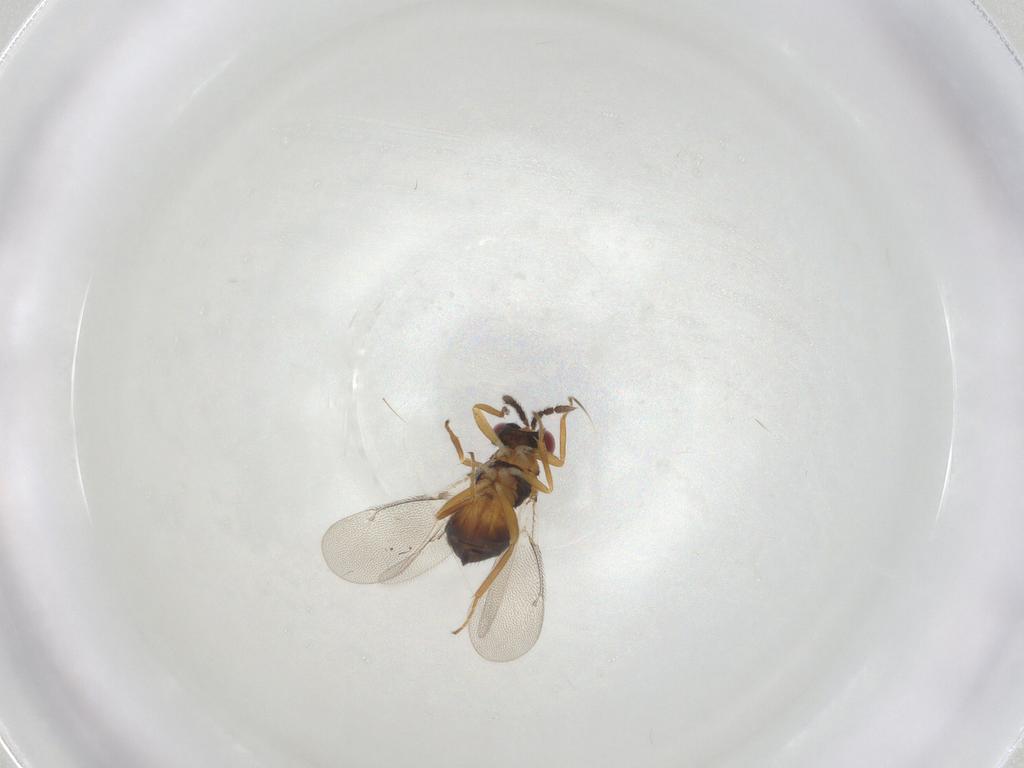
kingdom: Animalia
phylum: Arthropoda
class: Insecta
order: Hymenoptera
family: Eulophidae
